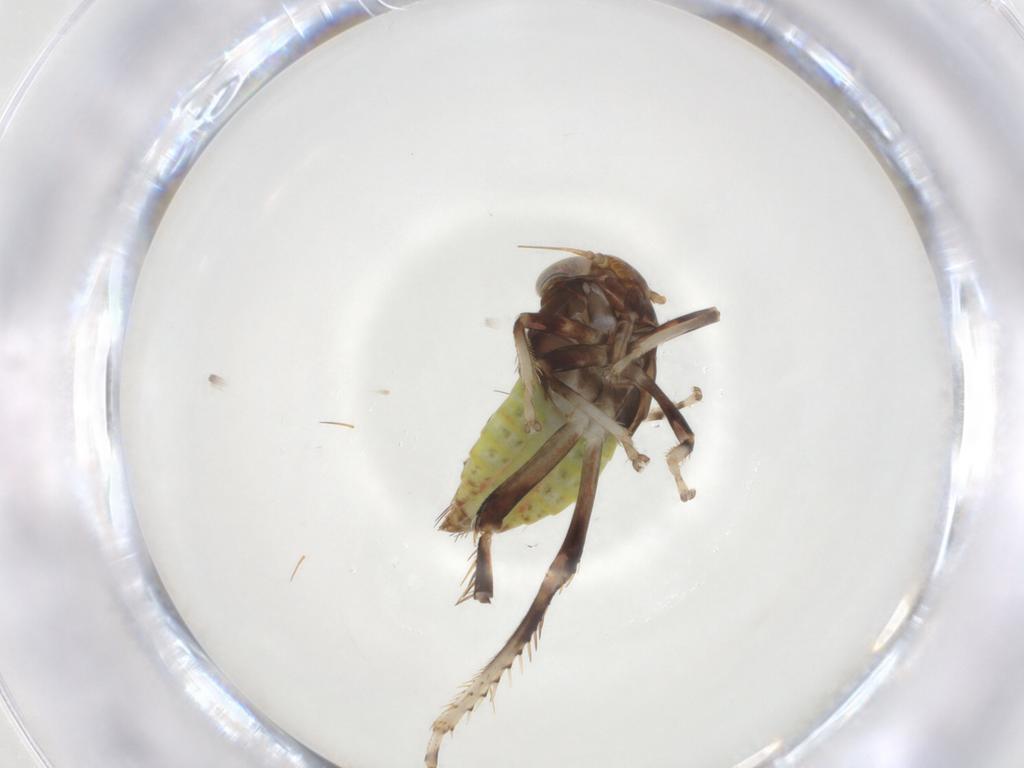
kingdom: Animalia
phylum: Arthropoda
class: Insecta
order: Hemiptera
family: Cicadellidae
